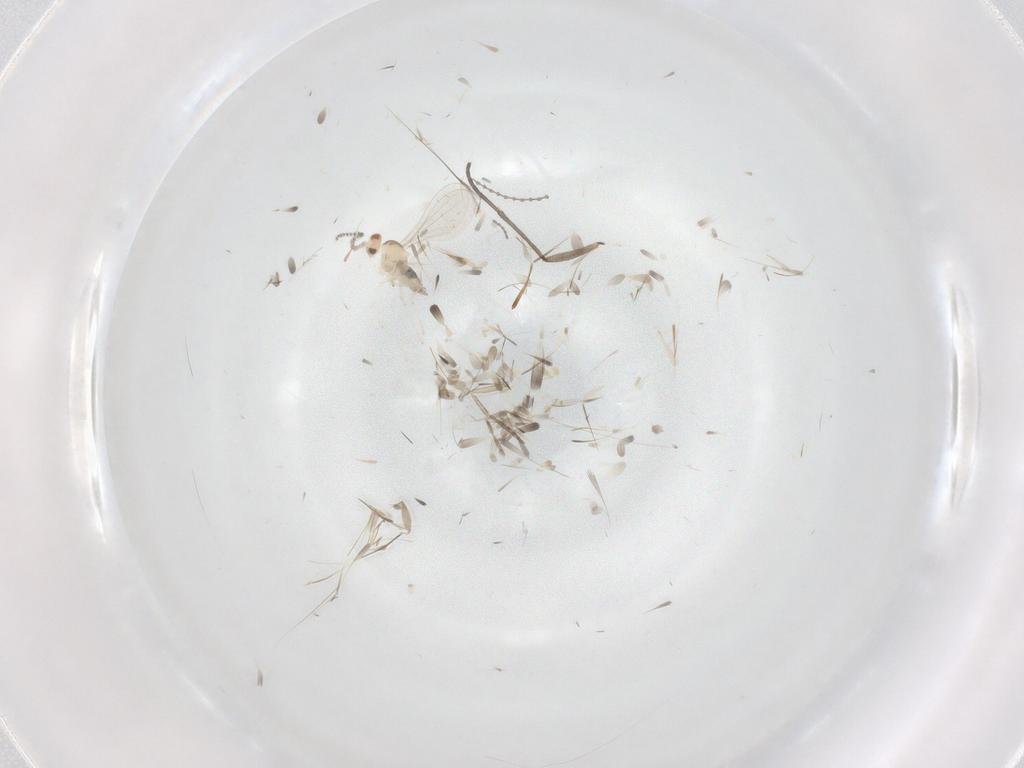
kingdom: Animalia
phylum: Arthropoda
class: Insecta
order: Diptera
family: Cecidomyiidae
